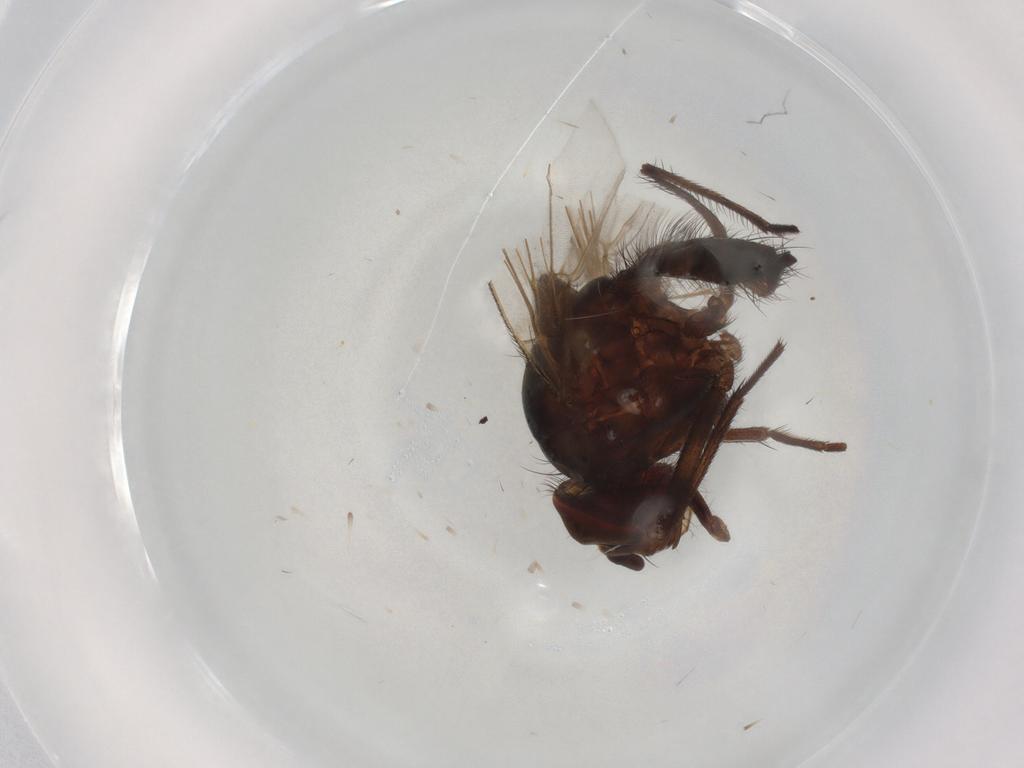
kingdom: Animalia
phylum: Arthropoda
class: Insecta
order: Diptera
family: Anthomyiidae
